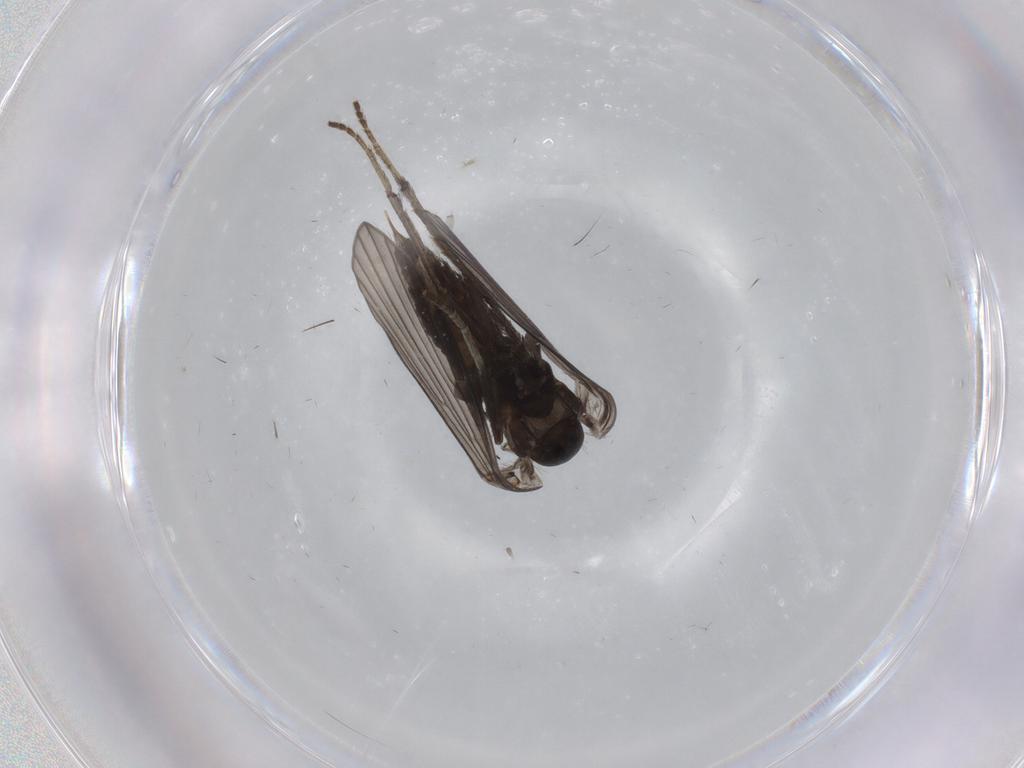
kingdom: Animalia
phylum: Arthropoda
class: Insecta
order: Diptera
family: Psychodidae
